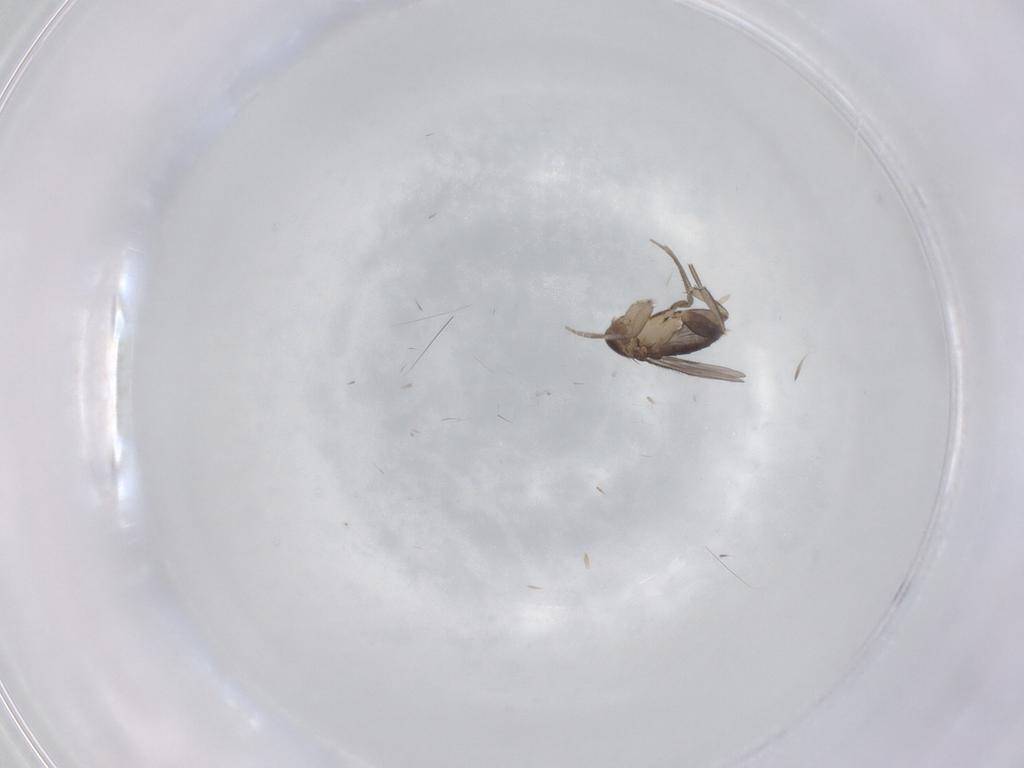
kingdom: Animalia
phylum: Arthropoda
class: Insecta
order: Diptera
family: Phoridae
